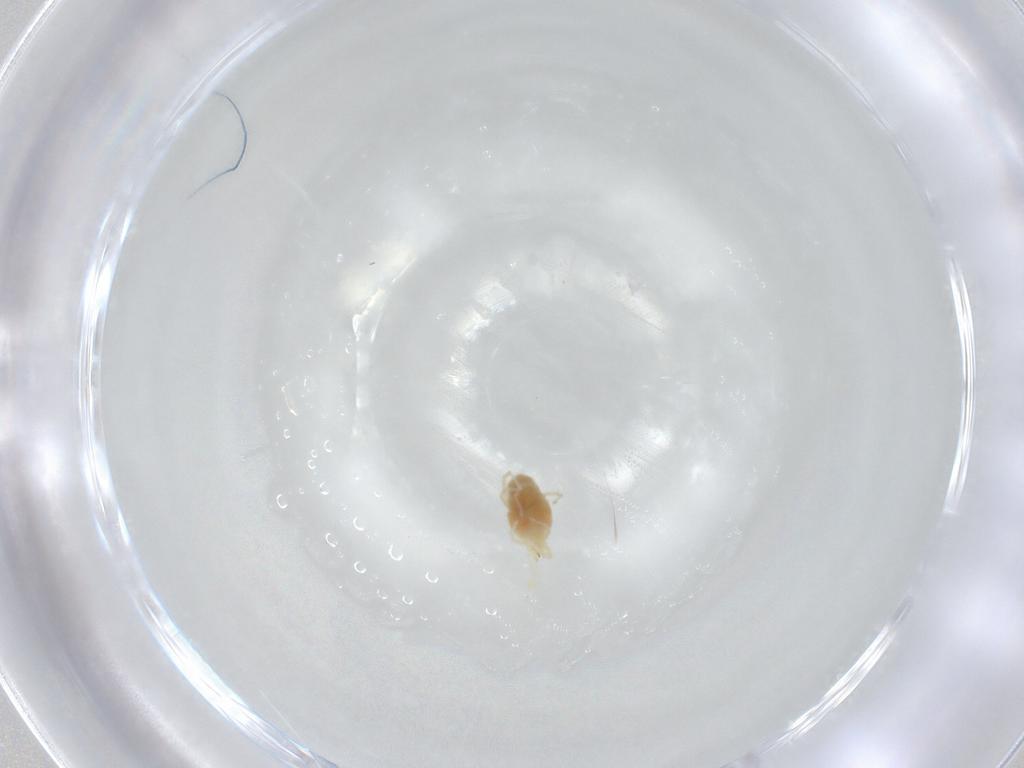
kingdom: Animalia
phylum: Arthropoda
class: Arachnida
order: Trombidiformes
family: Erythraeidae
